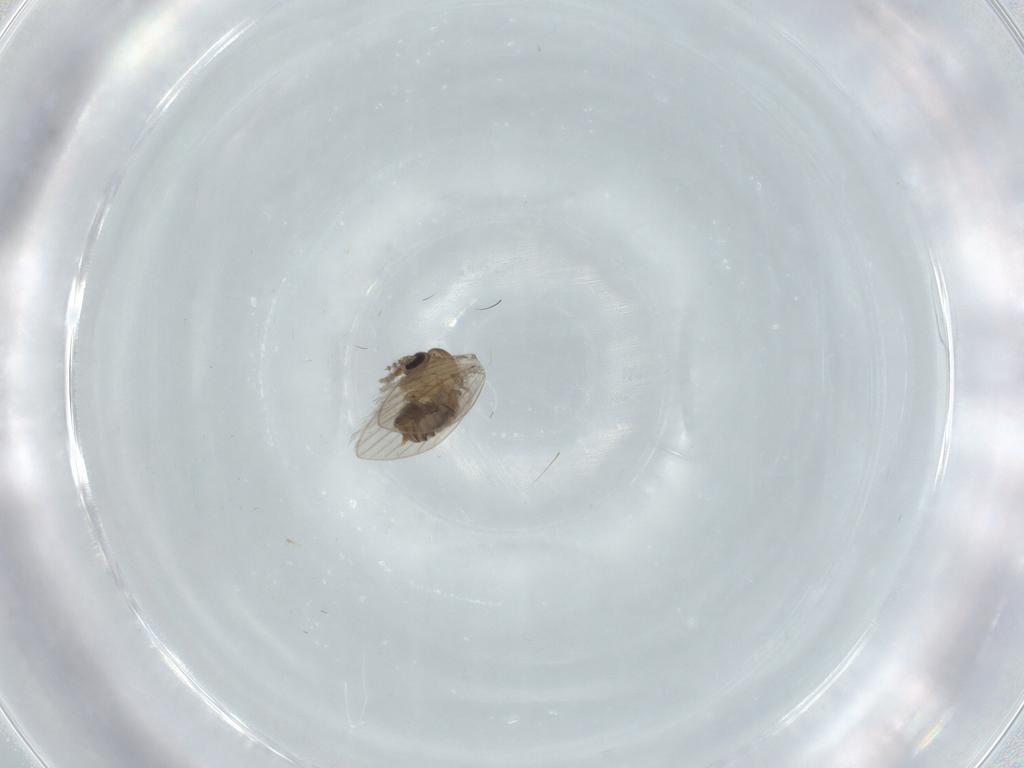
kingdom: Animalia
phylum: Arthropoda
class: Insecta
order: Diptera
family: Psychodidae
